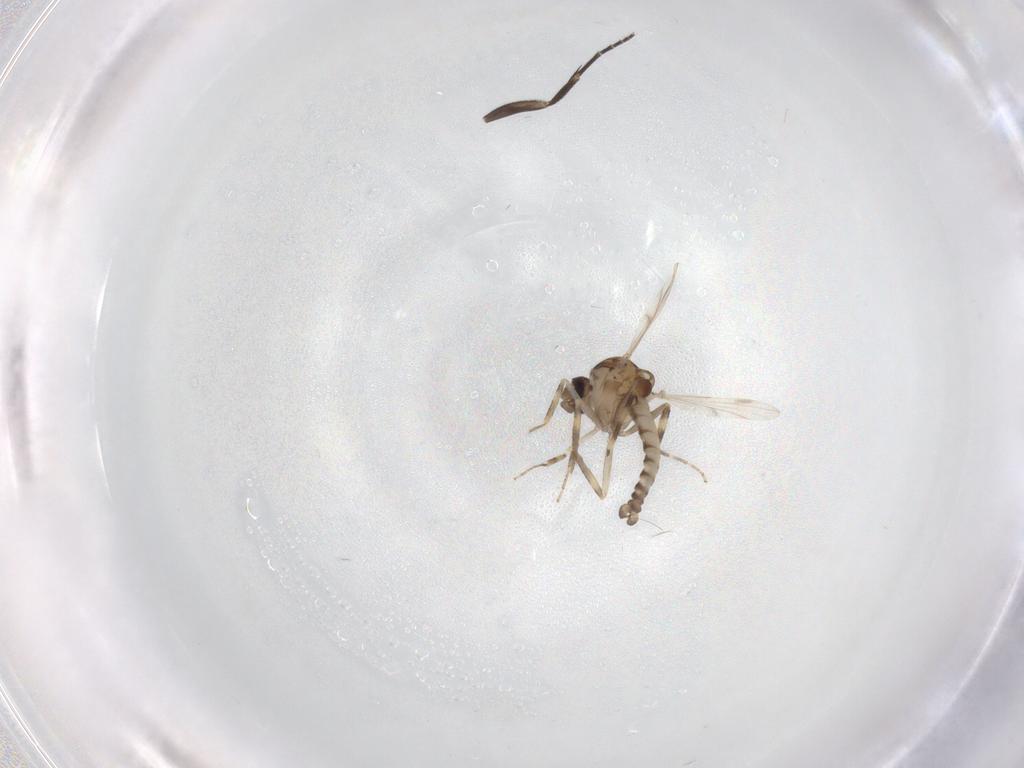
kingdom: Animalia
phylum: Arthropoda
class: Insecta
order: Diptera
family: Ceratopogonidae
